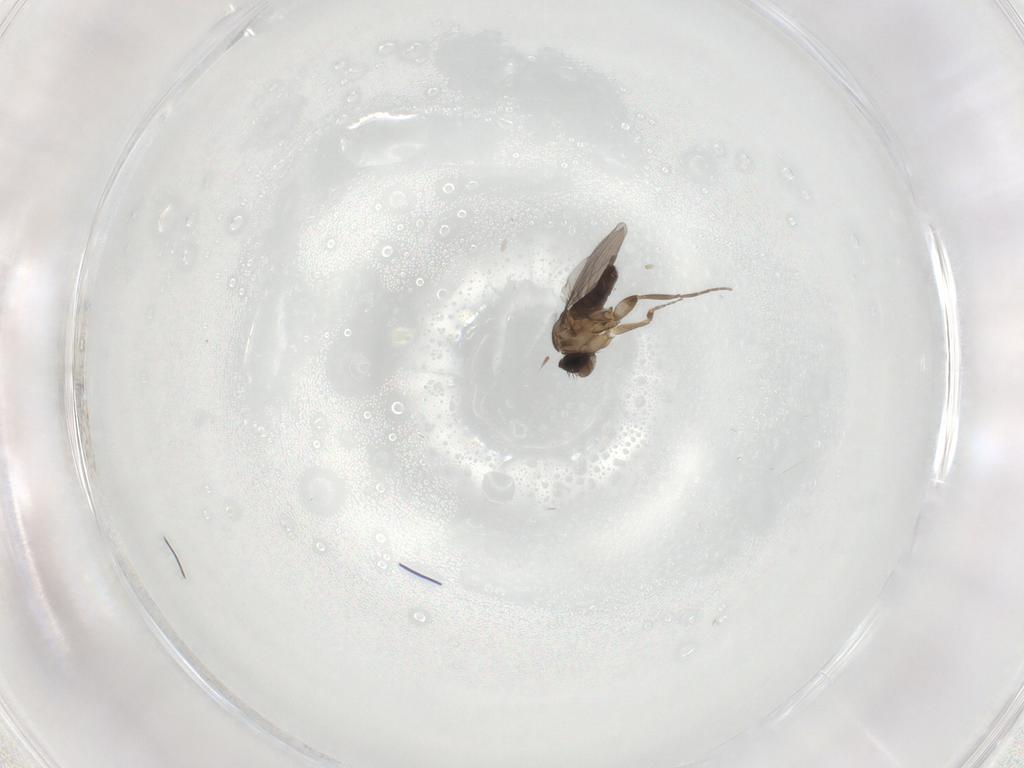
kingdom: Animalia
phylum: Arthropoda
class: Insecta
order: Diptera
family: Phoridae
